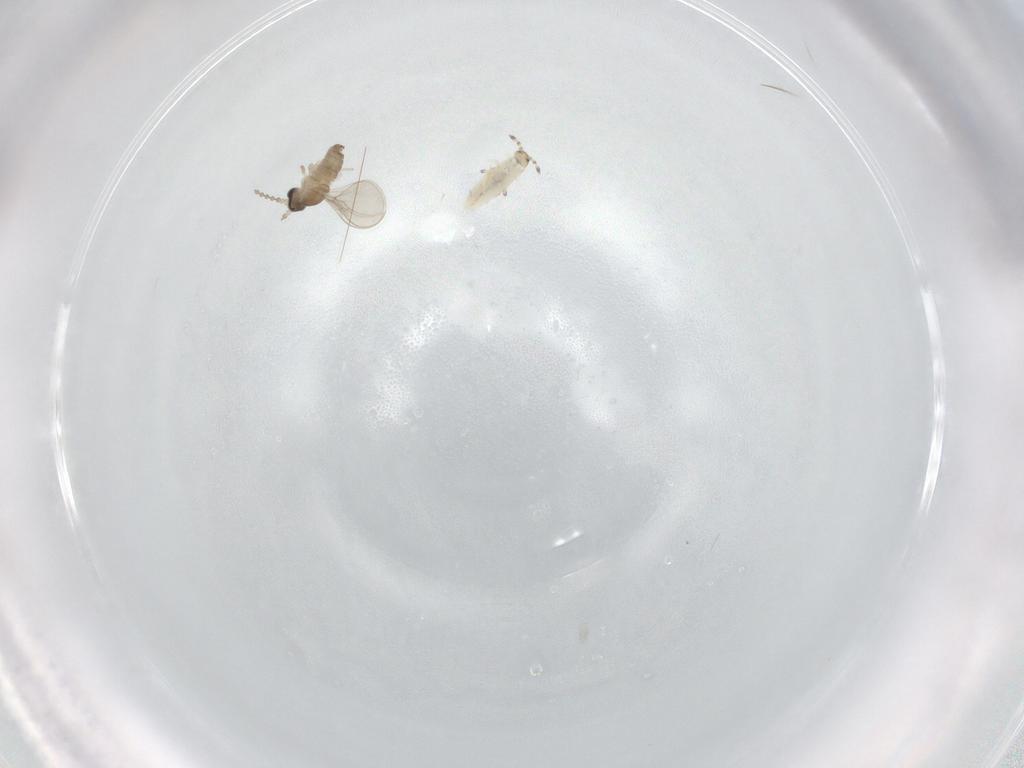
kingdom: Animalia
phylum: Arthropoda
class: Insecta
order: Diptera
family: Cecidomyiidae
